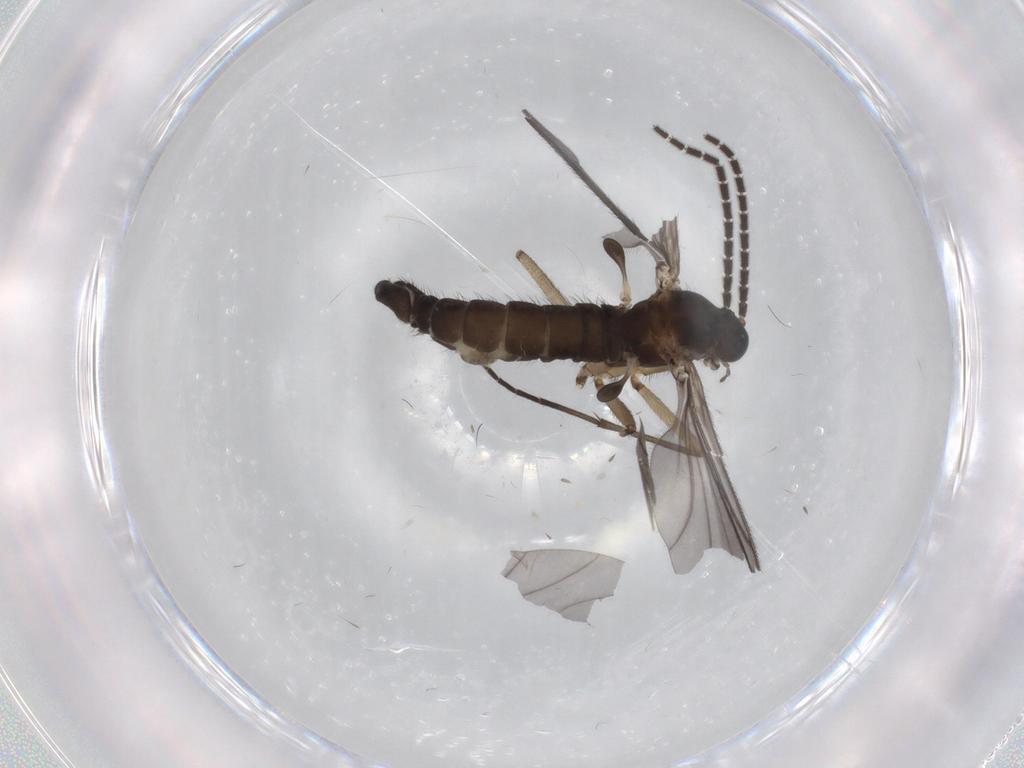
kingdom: Animalia
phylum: Arthropoda
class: Insecta
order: Diptera
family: Sciaridae
